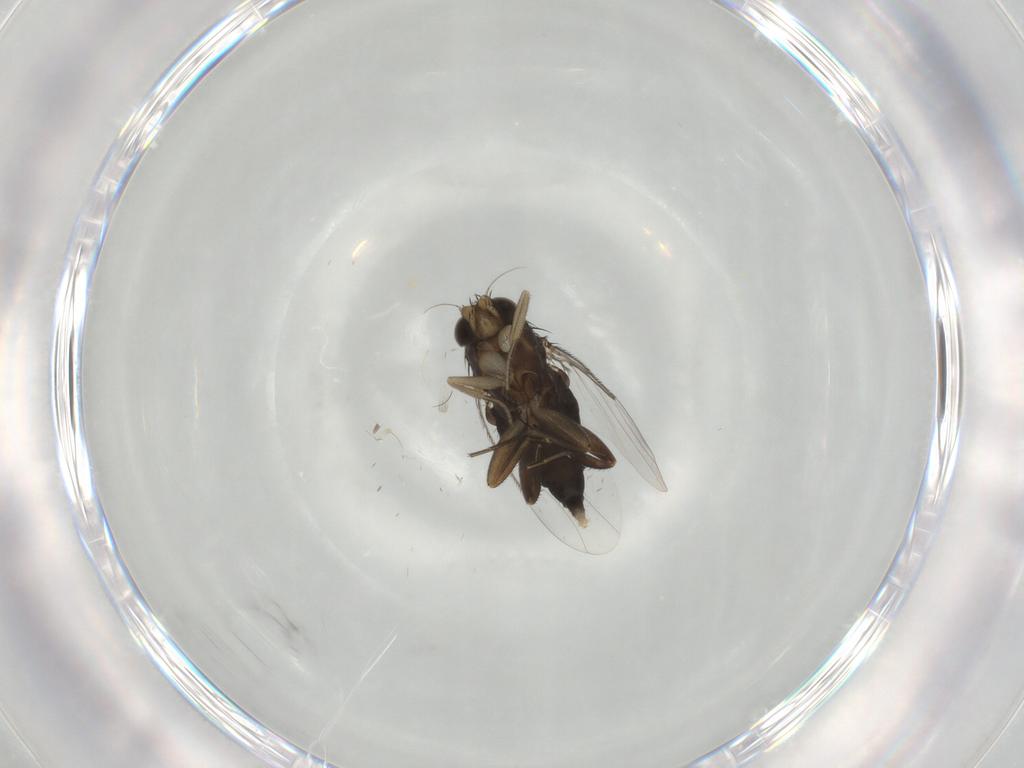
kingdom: Animalia
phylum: Arthropoda
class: Insecta
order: Diptera
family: Phoridae
